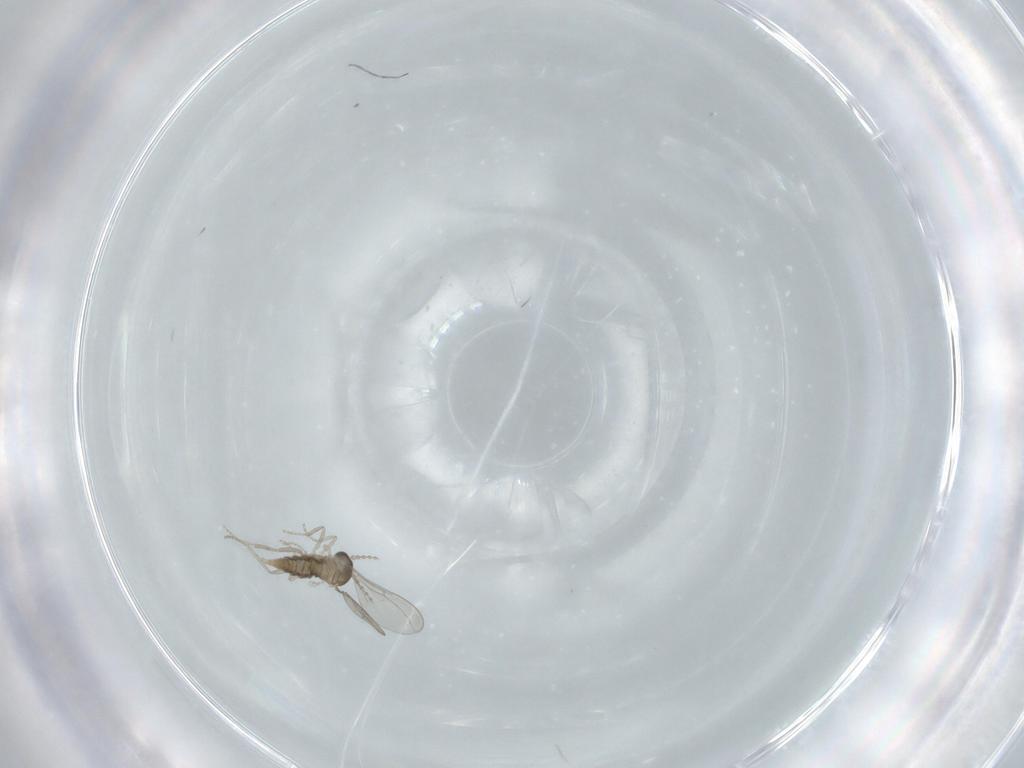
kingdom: Animalia
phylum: Arthropoda
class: Insecta
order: Diptera
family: Cecidomyiidae
